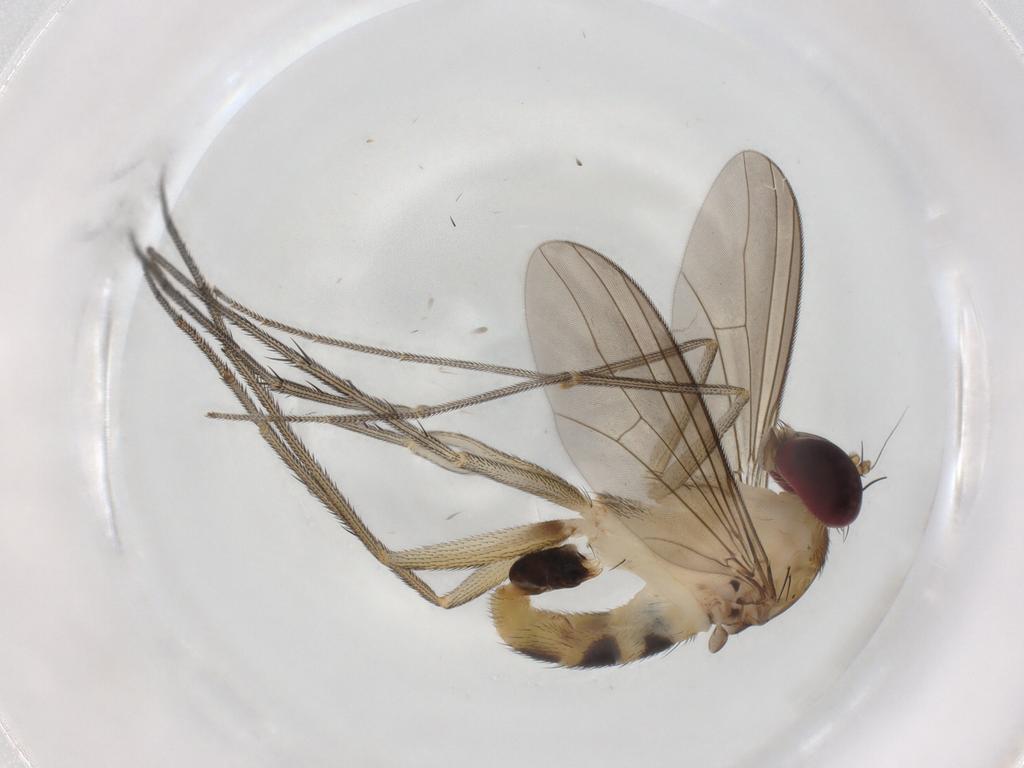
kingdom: Animalia
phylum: Arthropoda
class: Insecta
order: Diptera
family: Dolichopodidae
